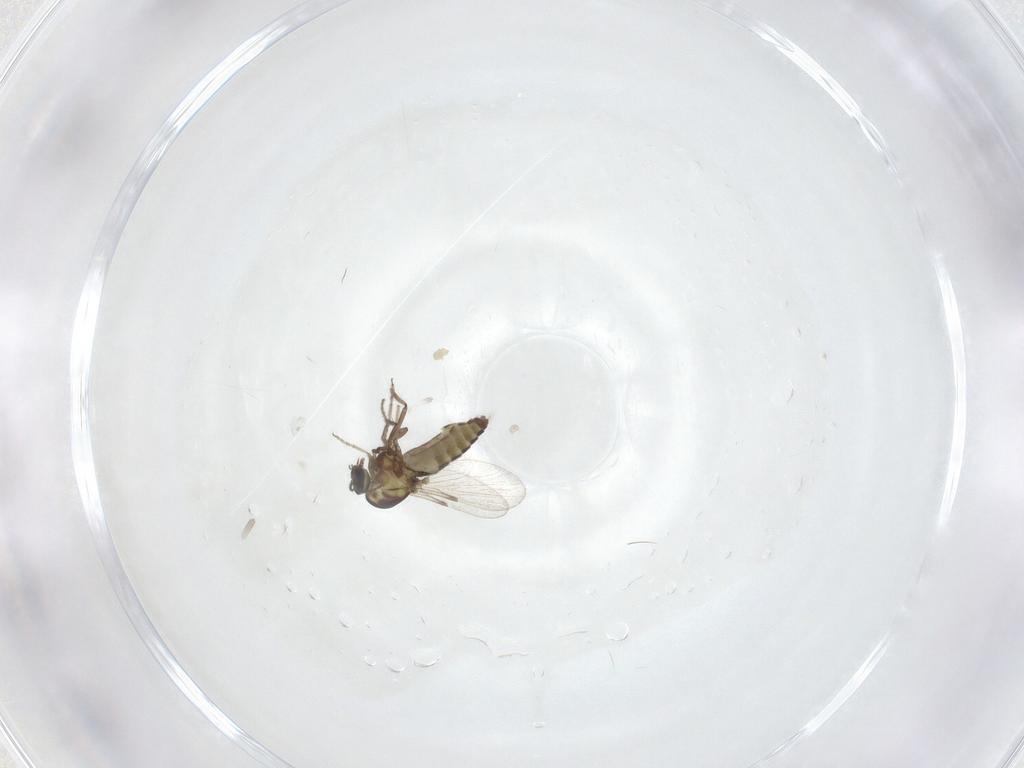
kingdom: Animalia
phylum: Arthropoda
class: Insecta
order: Diptera
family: Ceratopogonidae
